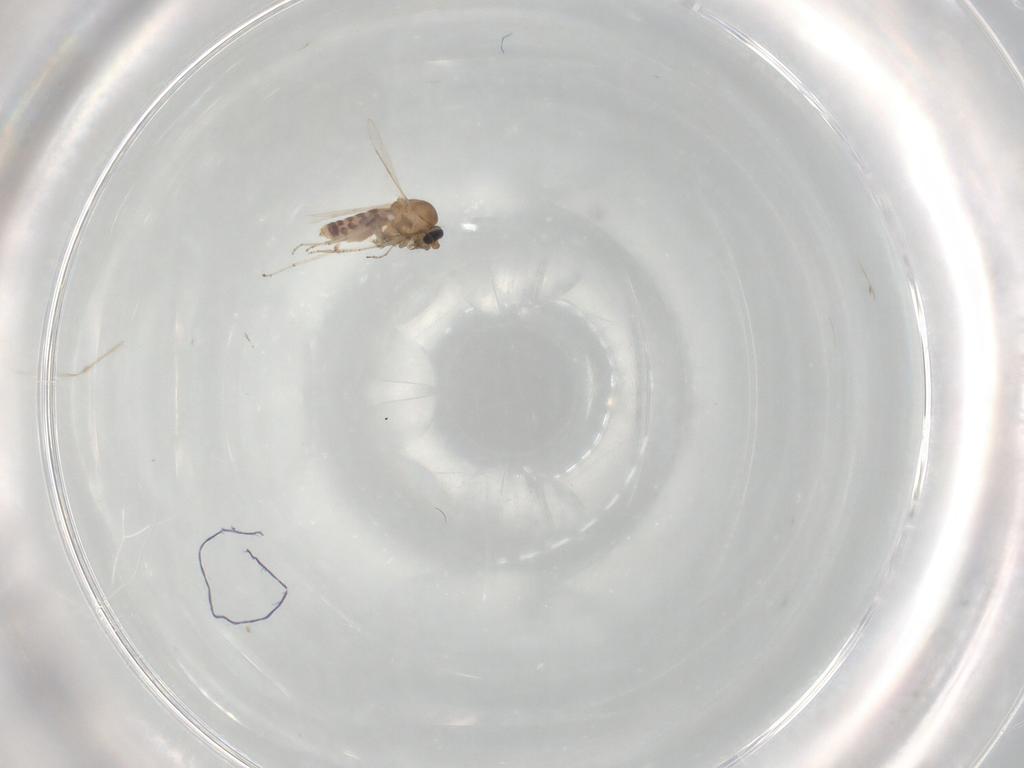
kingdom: Animalia
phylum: Arthropoda
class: Insecta
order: Diptera
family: Ceratopogonidae
